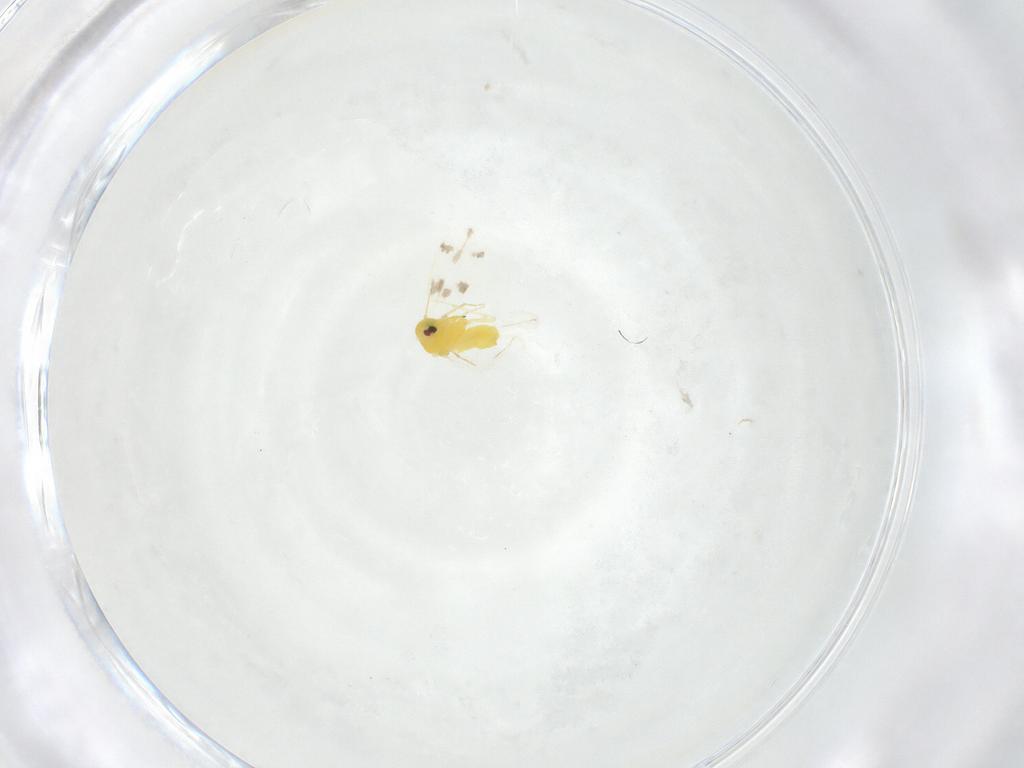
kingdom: Animalia
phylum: Arthropoda
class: Insecta
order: Hemiptera
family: Aleyrodidae
